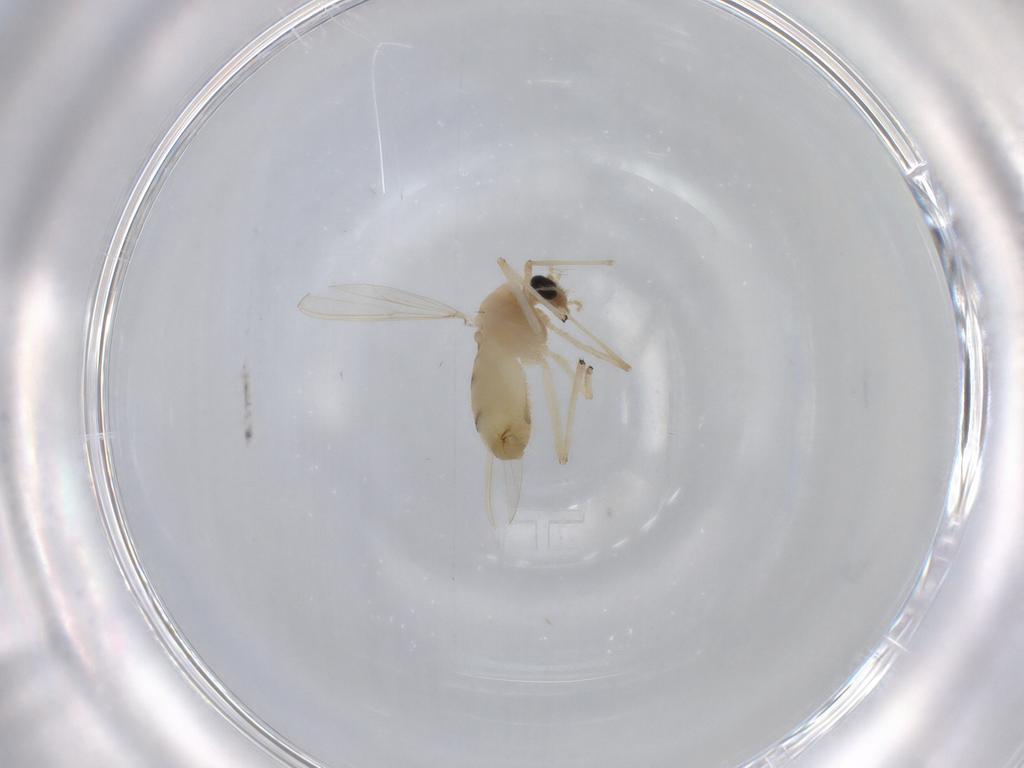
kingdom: Animalia
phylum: Arthropoda
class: Insecta
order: Diptera
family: Chironomidae
